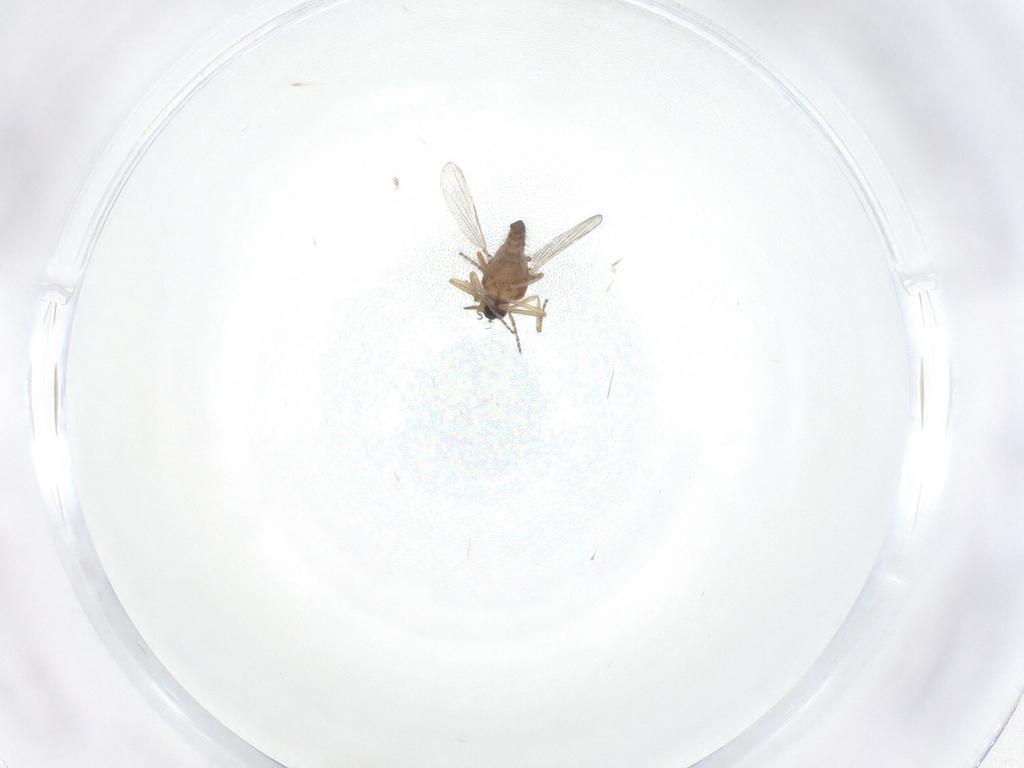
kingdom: Animalia
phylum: Arthropoda
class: Insecta
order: Diptera
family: Ceratopogonidae
